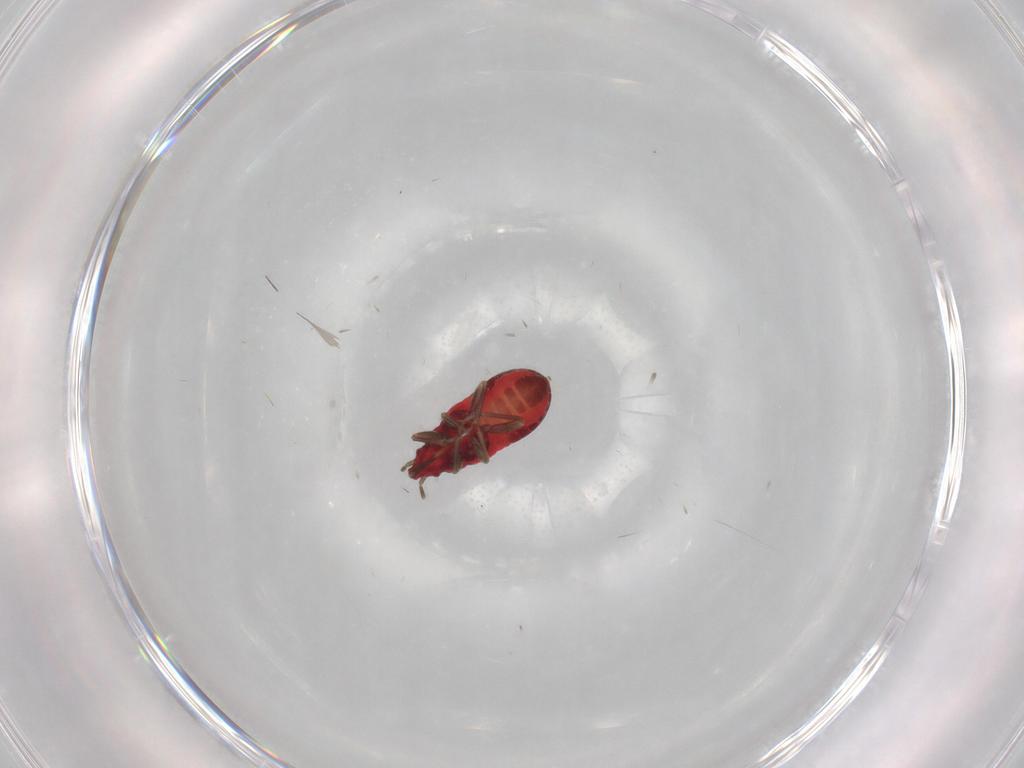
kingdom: Animalia
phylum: Arthropoda
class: Insecta
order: Hemiptera
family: Anthocoridae
